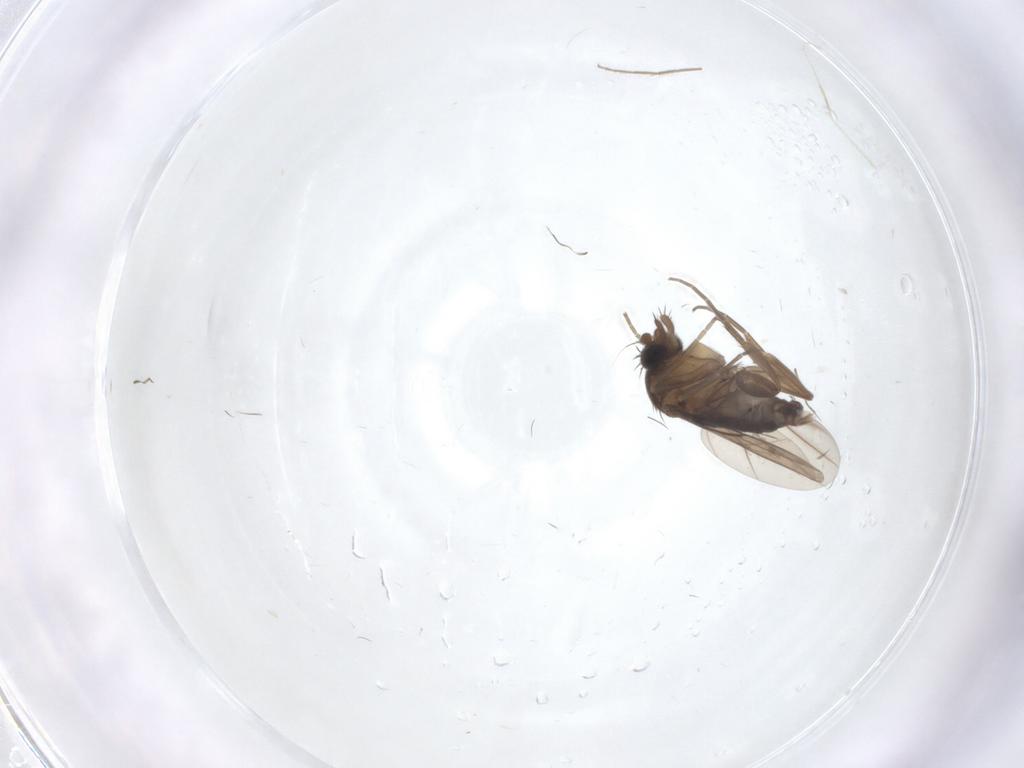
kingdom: Animalia
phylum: Arthropoda
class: Insecta
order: Diptera
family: Phoridae
